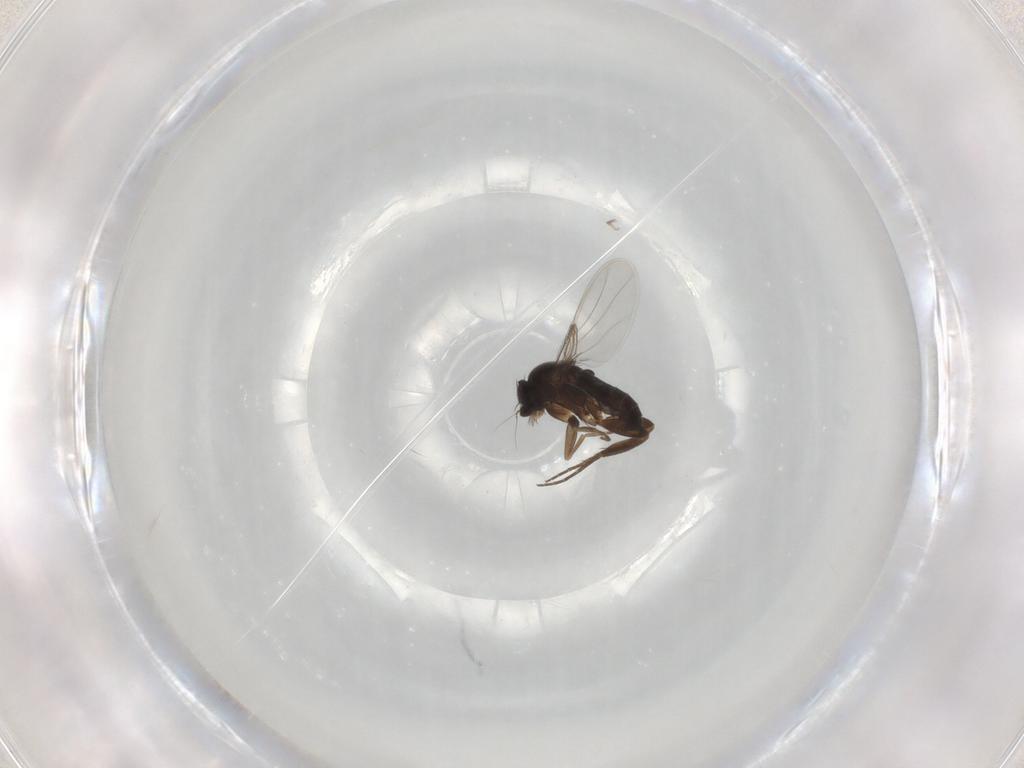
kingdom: Animalia
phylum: Arthropoda
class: Insecta
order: Diptera
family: Phoridae
